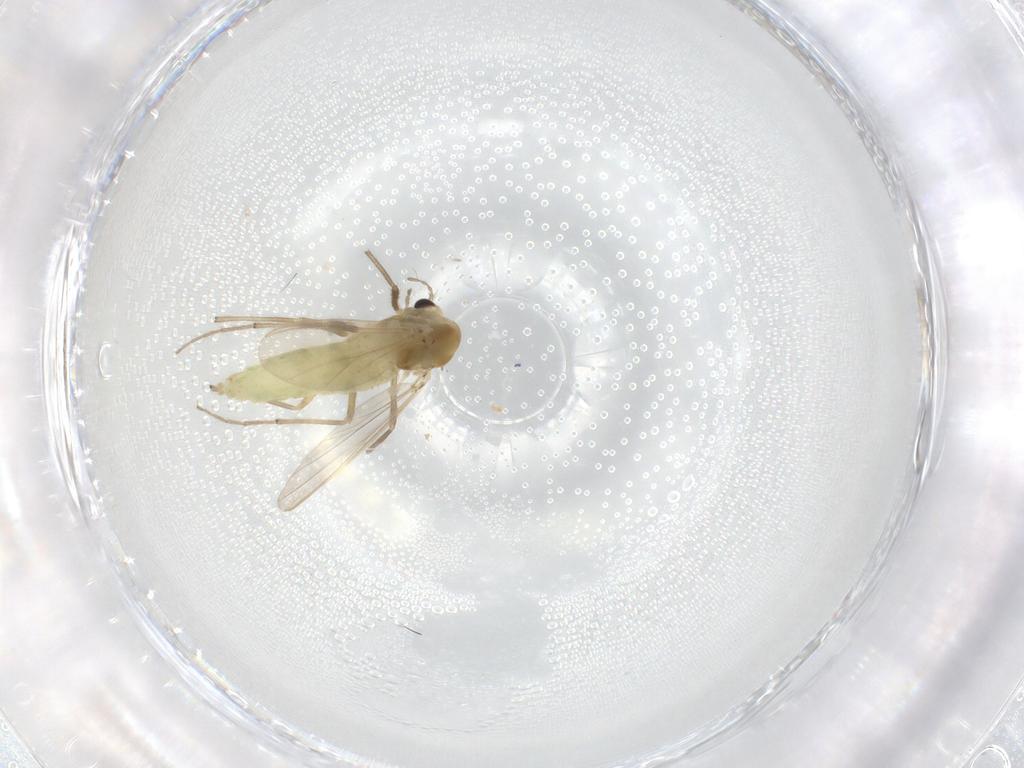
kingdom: Animalia
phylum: Arthropoda
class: Insecta
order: Diptera
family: Chironomidae
